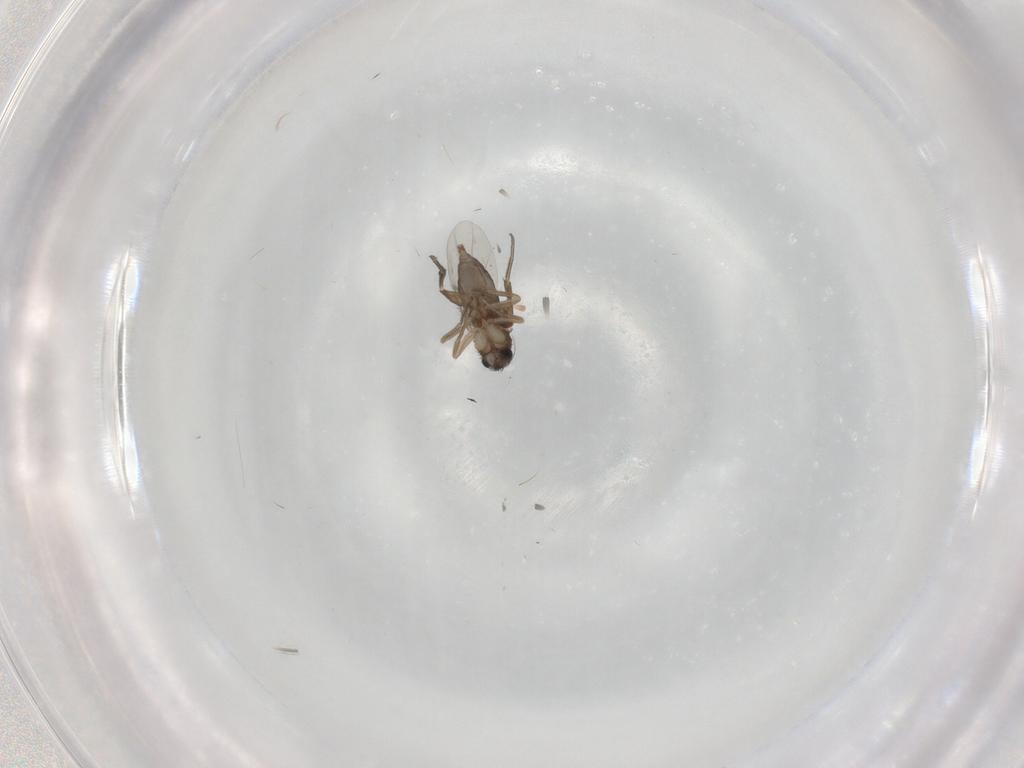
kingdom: Animalia
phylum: Arthropoda
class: Insecta
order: Diptera
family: Phoridae
